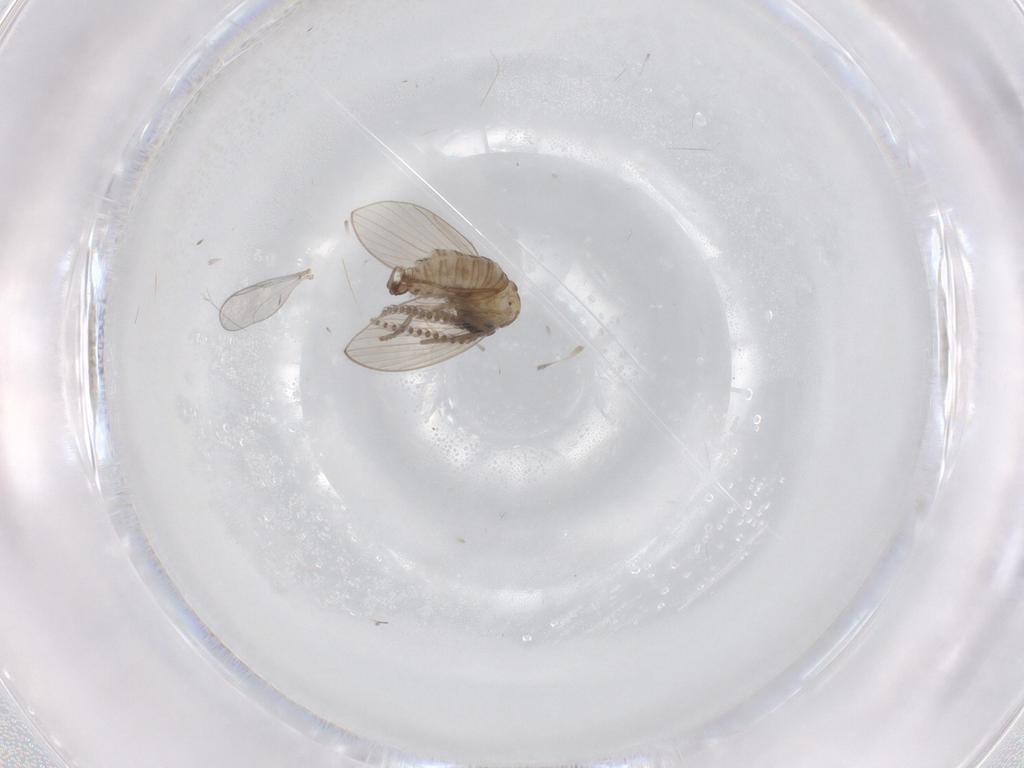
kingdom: Animalia
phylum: Arthropoda
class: Insecta
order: Diptera
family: Psychodidae
